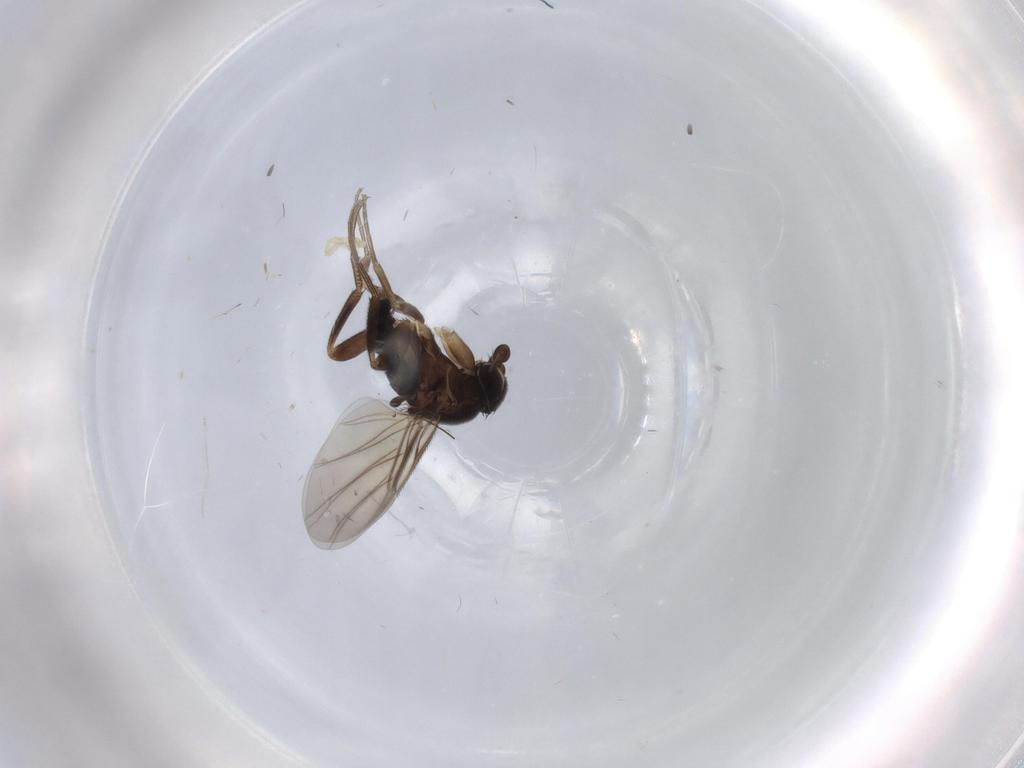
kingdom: Animalia
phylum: Arthropoda
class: Insecta
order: Diptera
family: Phoridae
